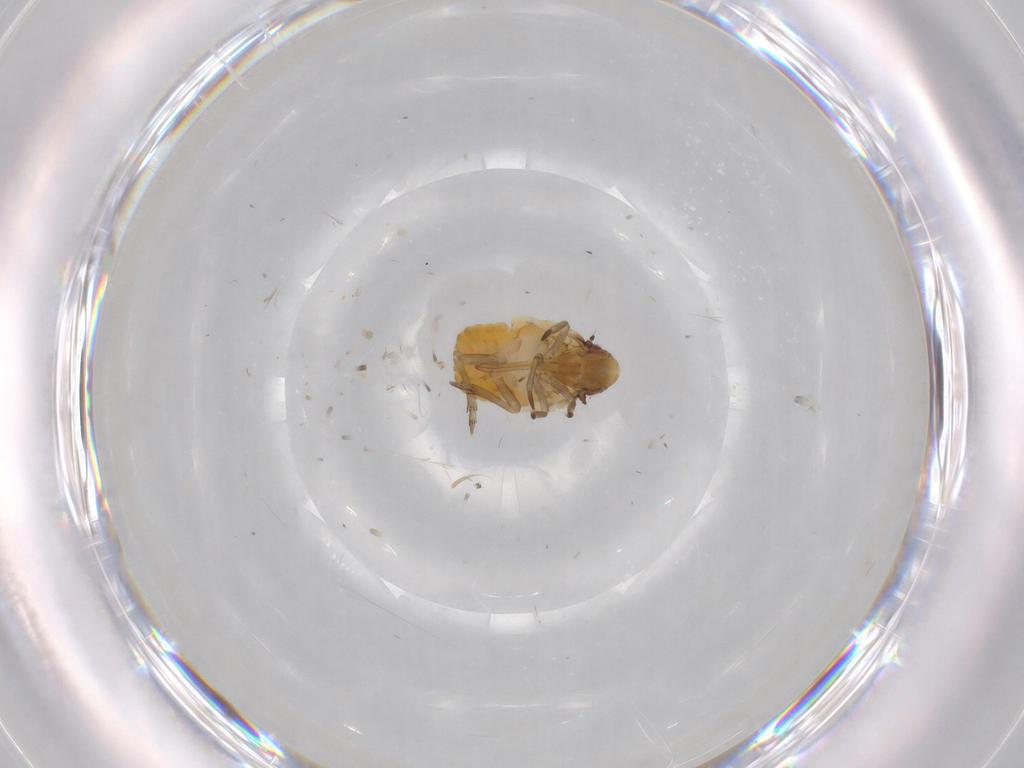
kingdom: Animalia
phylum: Arthropoda
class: Insecta
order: Hemiptera
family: Flatidae
